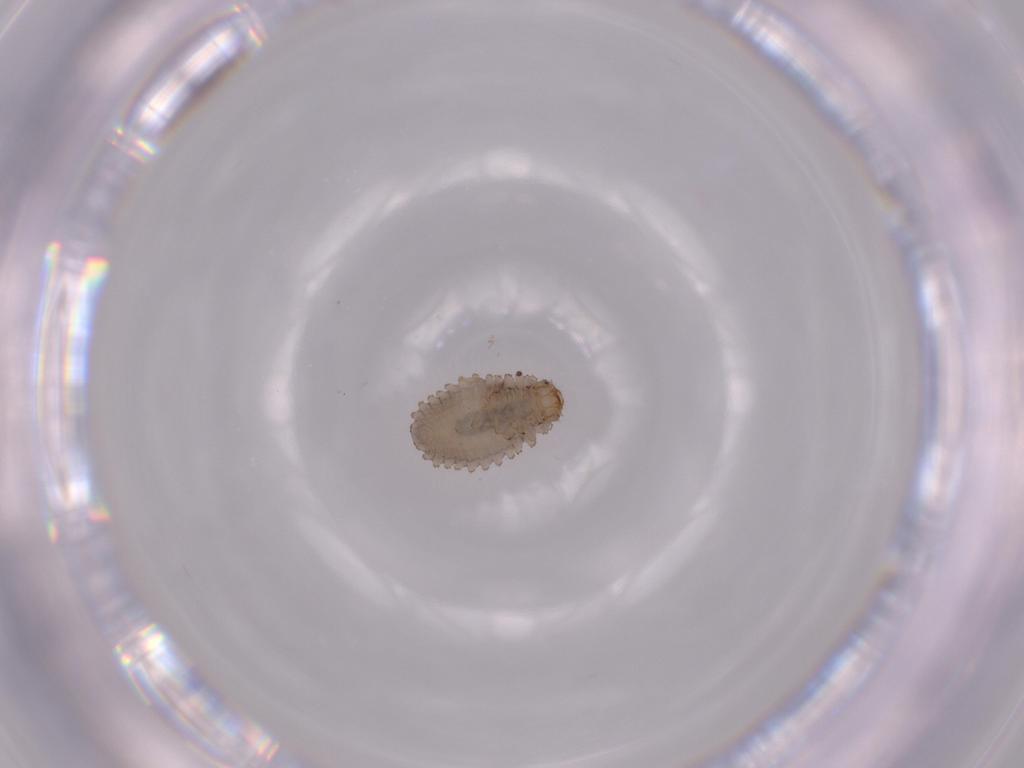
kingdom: Animalia
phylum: Arthropoda
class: Insecta
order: Coleoptera
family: Coccinellidae
